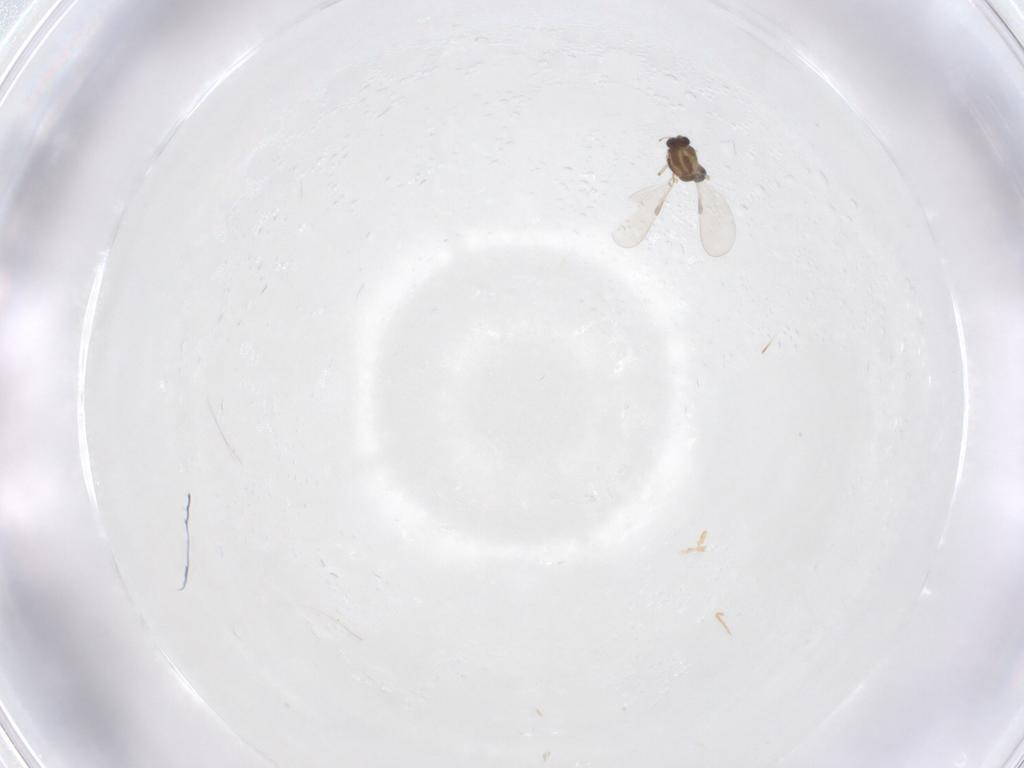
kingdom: Animalia
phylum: Arthropoda
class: Insecta
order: Diptera
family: Chironomidae
